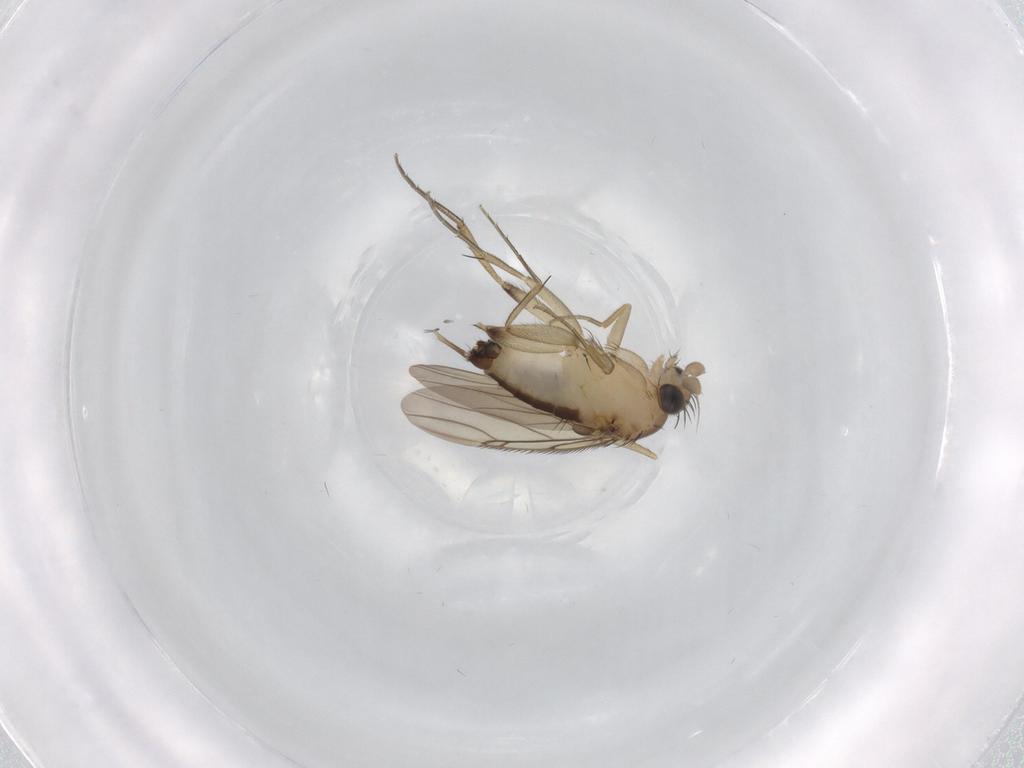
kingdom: Animalia
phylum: Arthropoda
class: Insecta
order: Diptera
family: Phoridae
